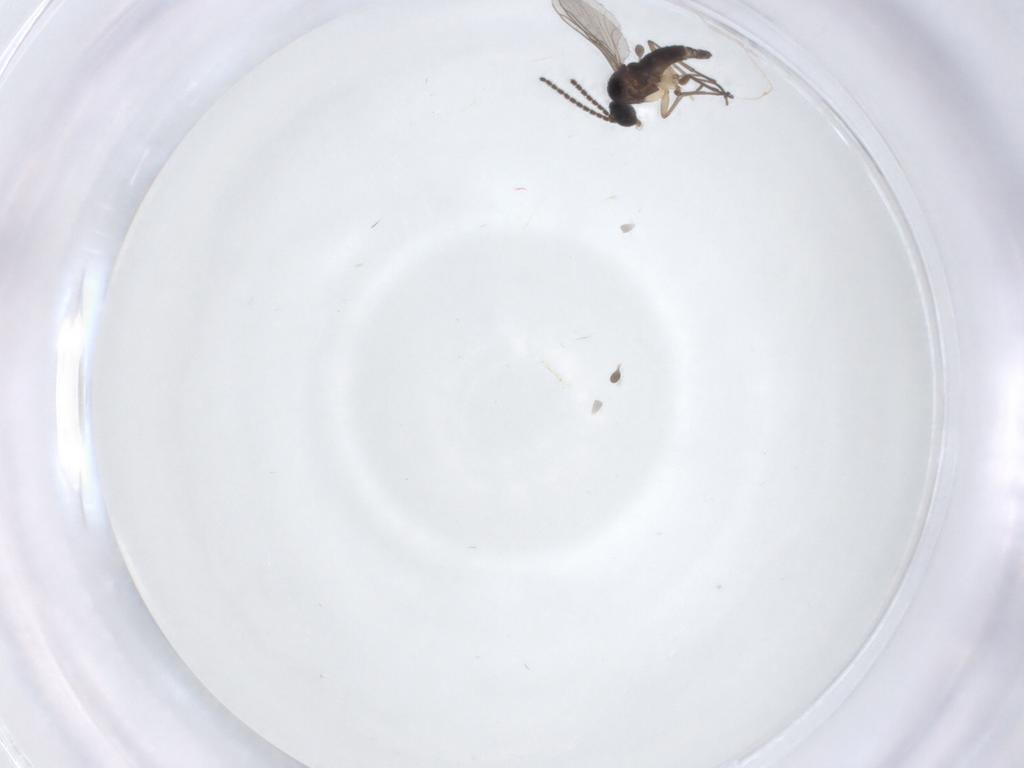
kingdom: Animalia
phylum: Arthropoda
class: Insecta
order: Diptera
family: Sciaridae
